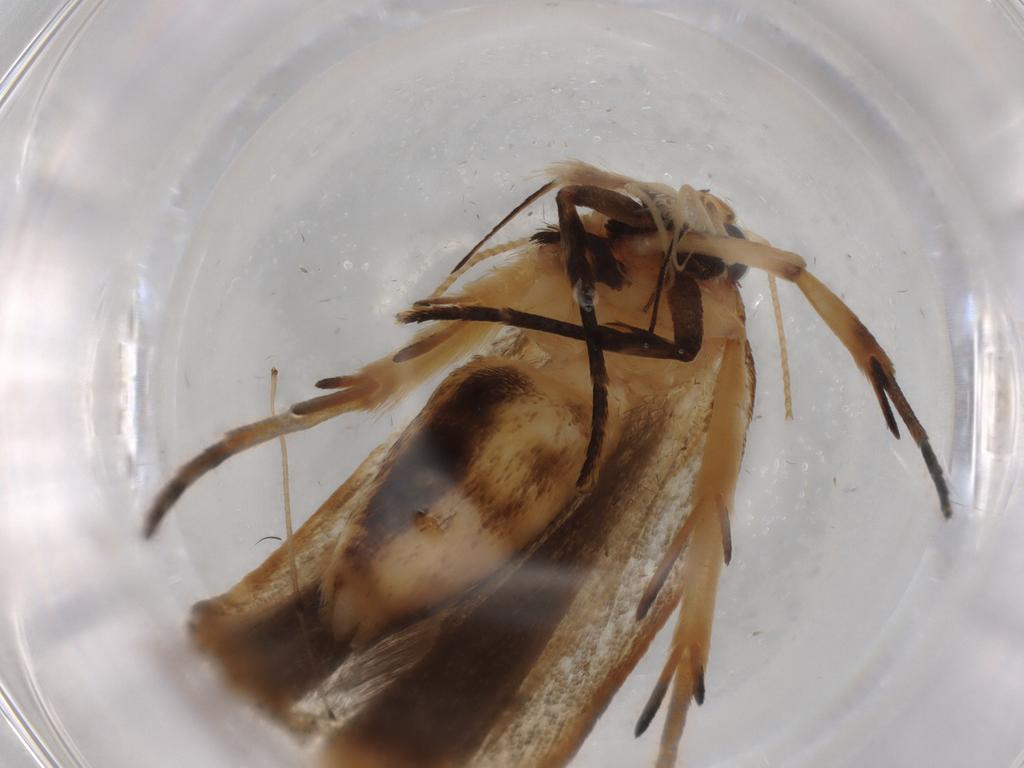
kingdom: Animalia
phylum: Arthropoda
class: Insecta
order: Lepidoptera
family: Gelechiidae
